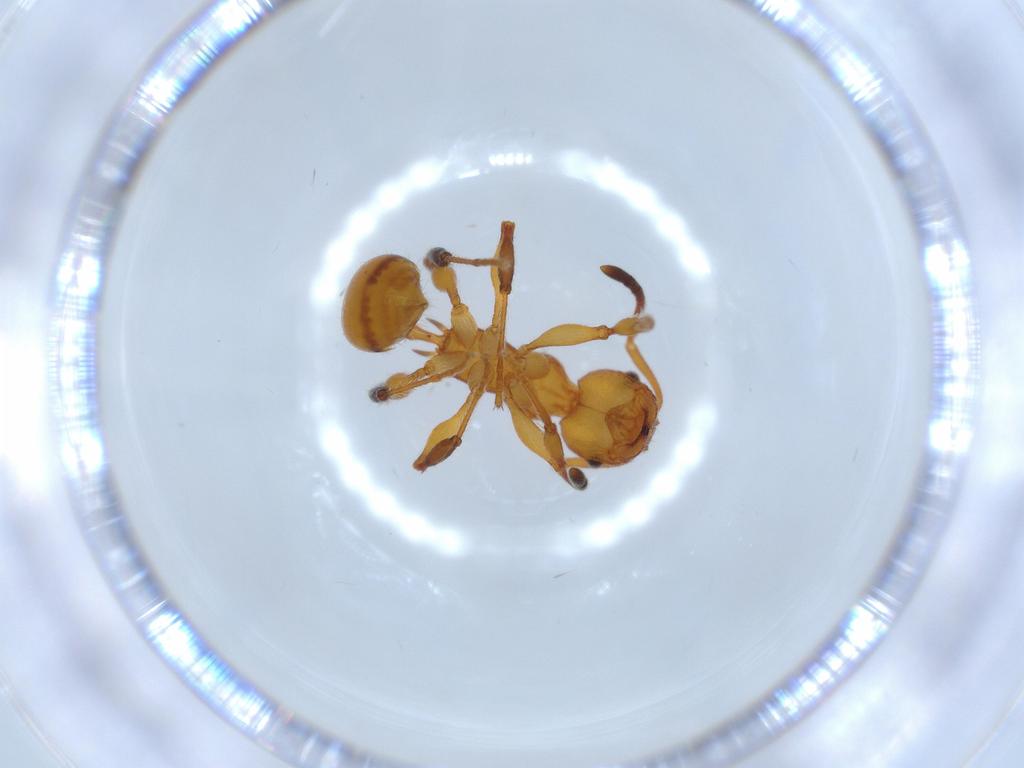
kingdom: Animalia
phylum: Arthropoda
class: Insecta
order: Hymenoptera
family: Formicidae
